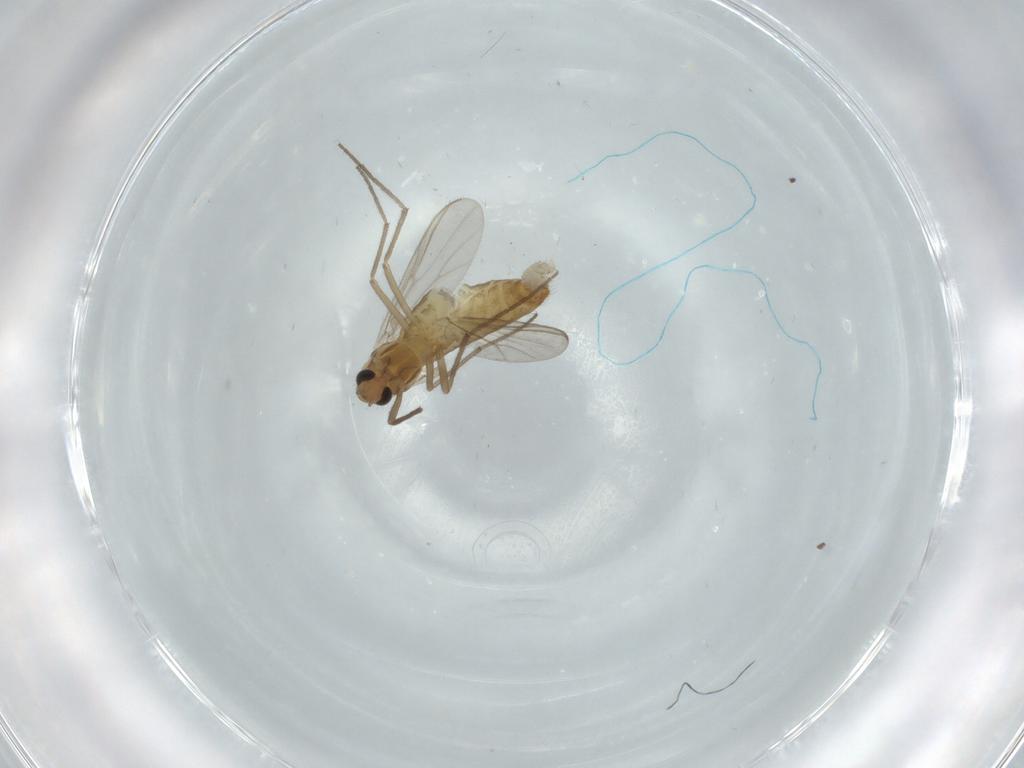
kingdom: Animalia
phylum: Arthropoda
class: Insecta
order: Diptera
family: Chironomidae
